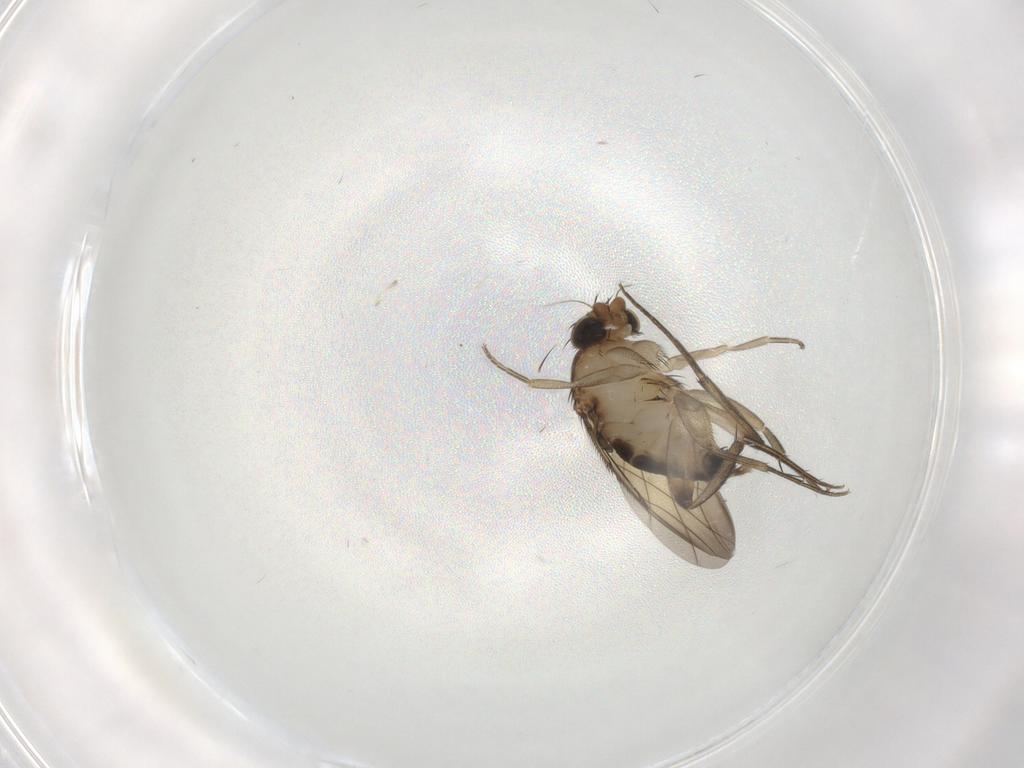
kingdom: Animalia
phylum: Arthropoda
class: Insecta
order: Diptera
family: Phoridae
